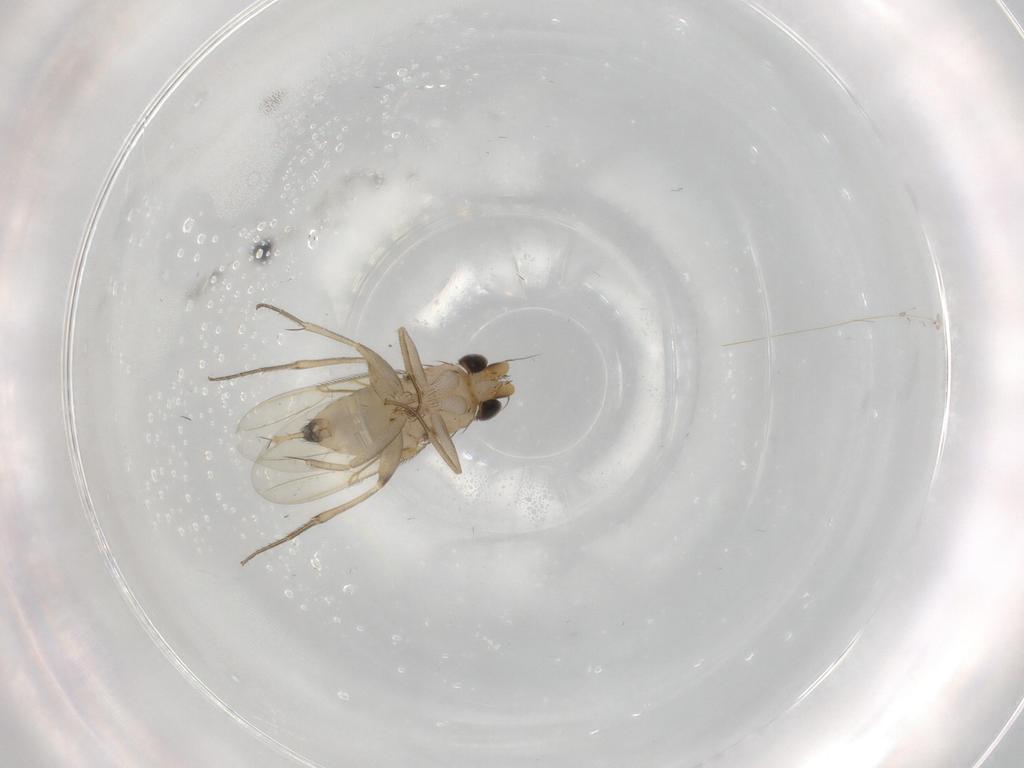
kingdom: Animalia
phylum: Arthropoda
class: Insecta
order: Diptera
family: Phoridae
